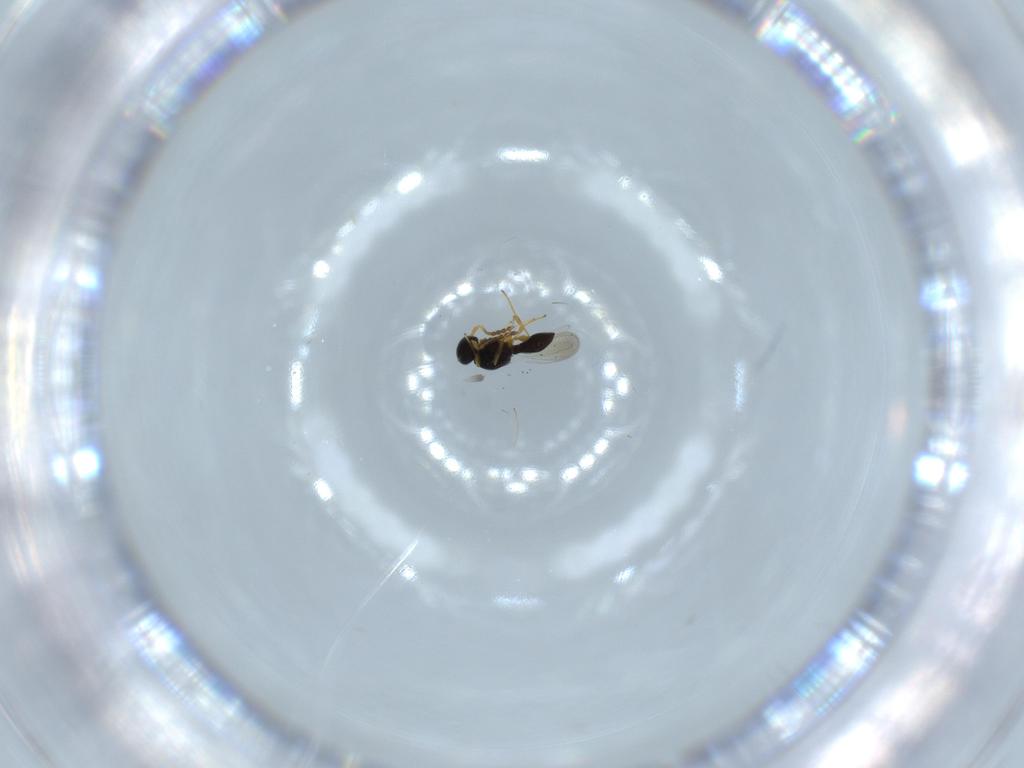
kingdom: Animalia
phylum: Arthropoda
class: Insecta
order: Hymenoptera
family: Platygastridae
